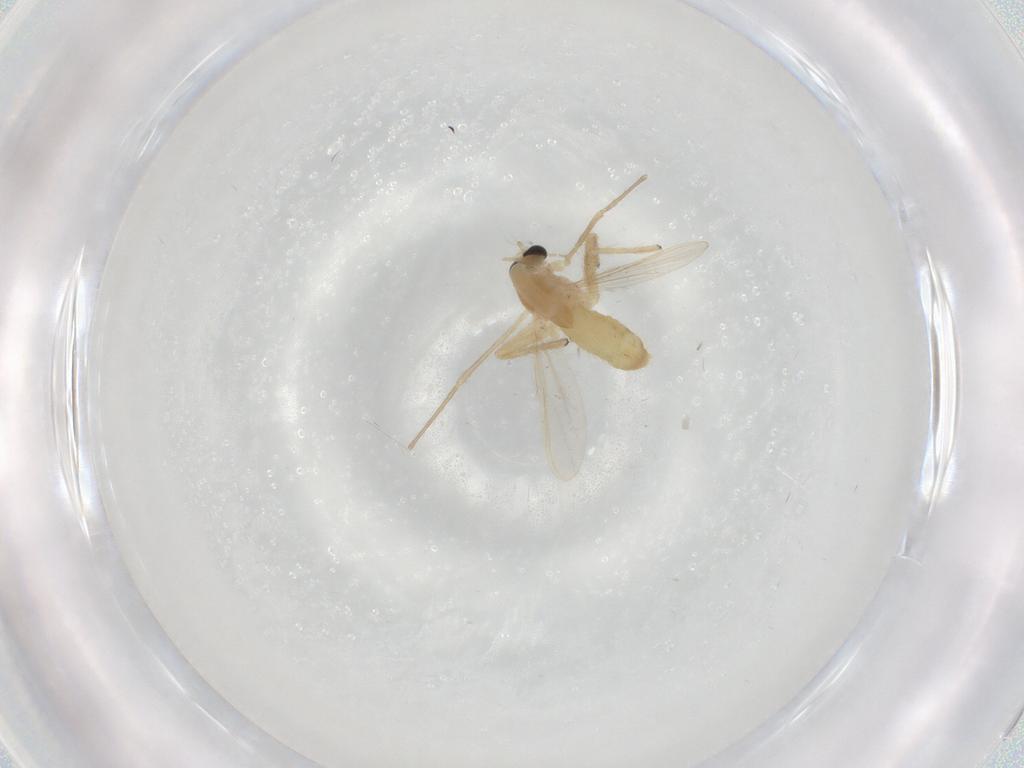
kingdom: Animalia
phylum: Arthropoda
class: Insecta
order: Diptera
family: Chironomidae
